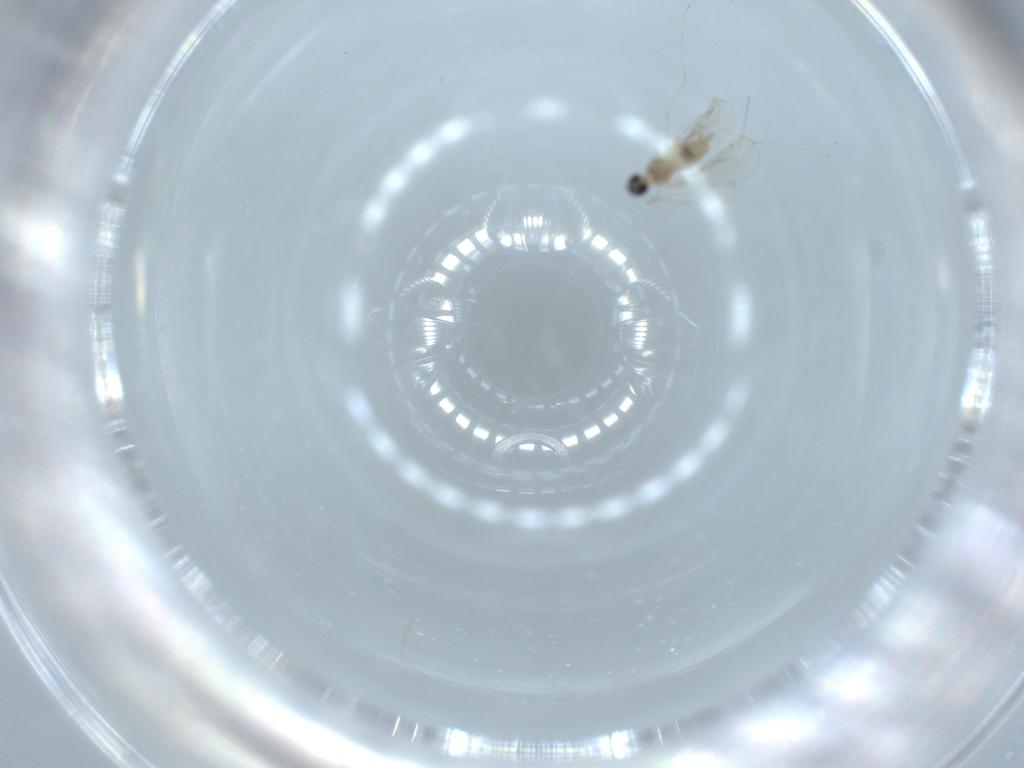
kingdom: Animalia
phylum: Arthropoda
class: Insecta
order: Diptera
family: Cecidomyiidae
